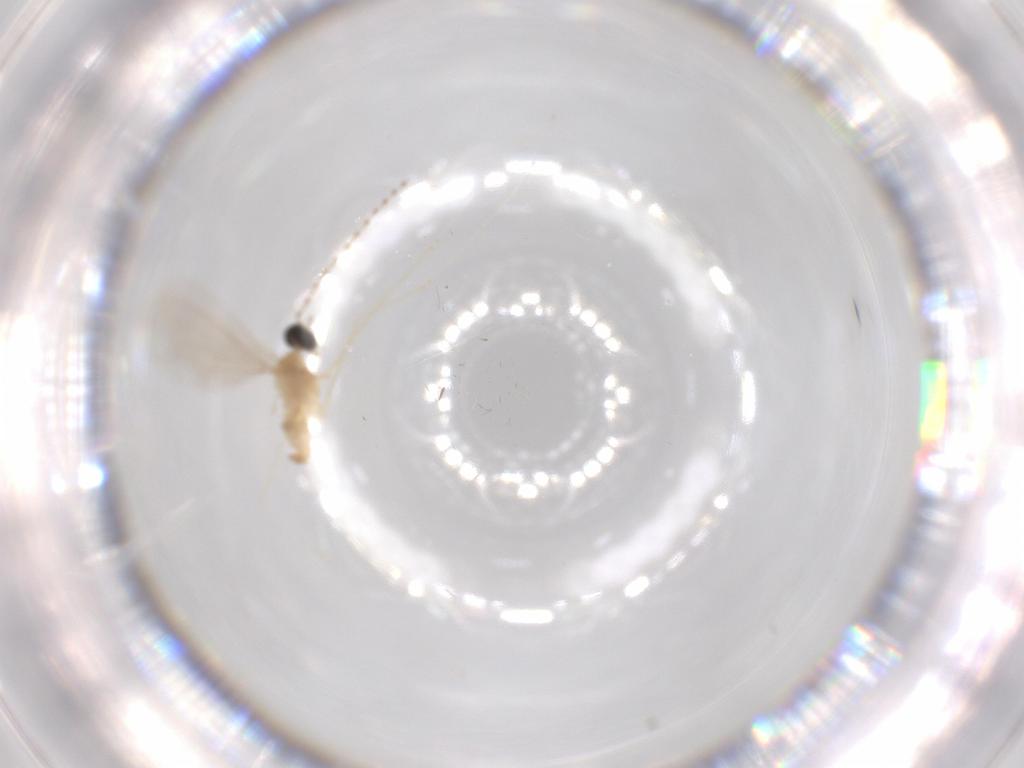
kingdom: Animalia
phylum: Arthropoda
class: Insecta
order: Diptera
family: Cecidomyiidae
